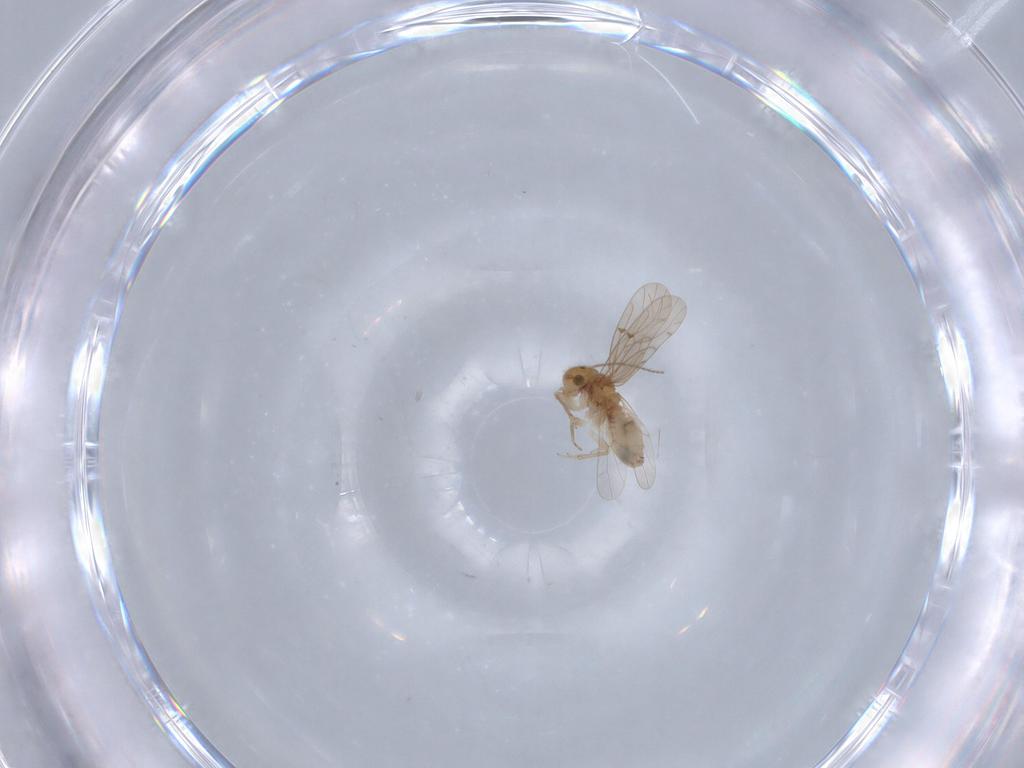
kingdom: Animalia
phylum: Arthropoda
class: Insecta
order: Psocodea
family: Ectopsocidae
